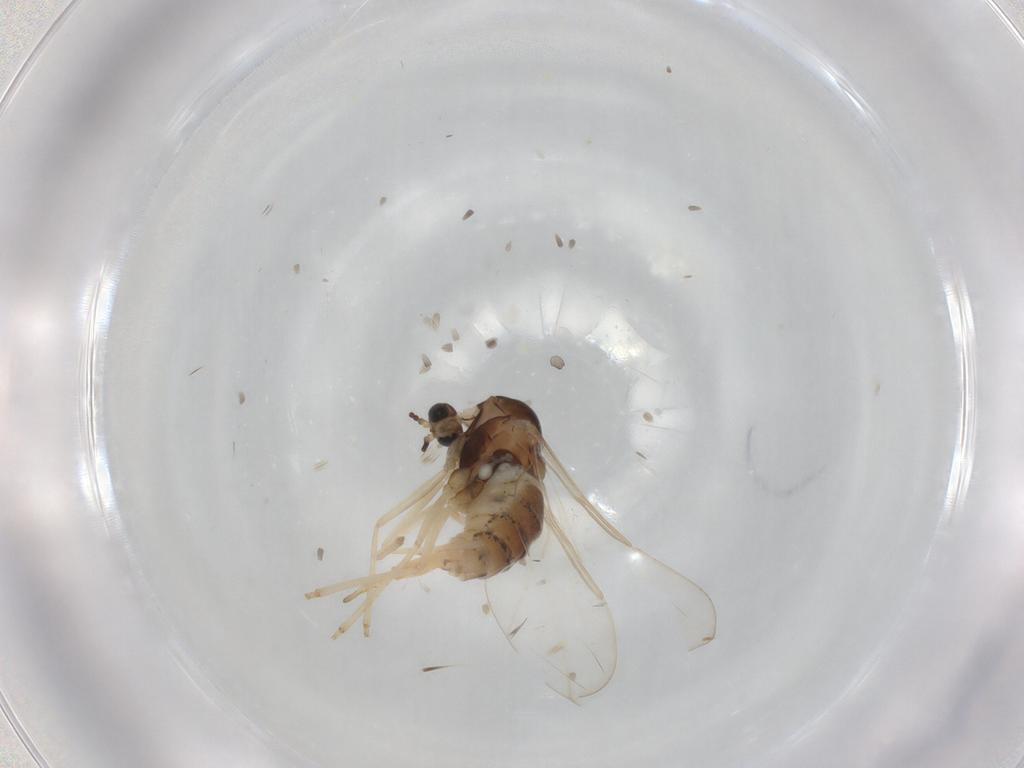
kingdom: Animalia
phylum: Arthropoda
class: Insecta
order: Diptera
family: Cecidomyiidae
